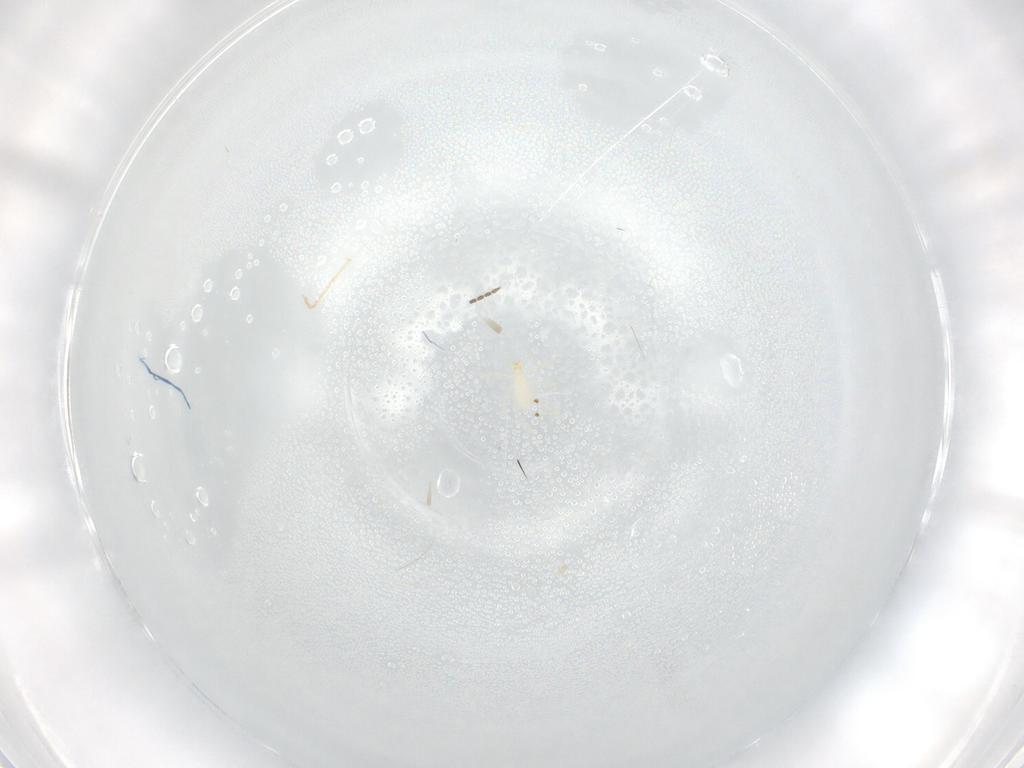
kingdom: Animalia
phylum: Arthropoda
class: Arachnida
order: Trombidiformes
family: Erythraeidae
